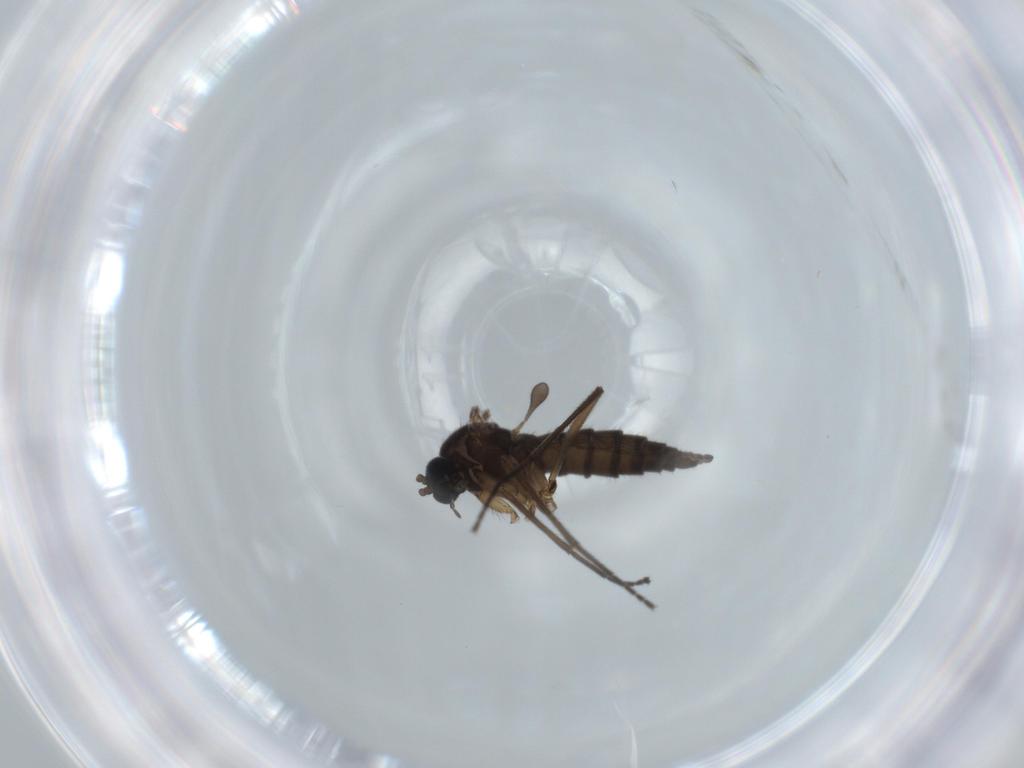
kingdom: Animalia
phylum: Arthropoda
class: Insecta
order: Diptera
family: Sciaridae
